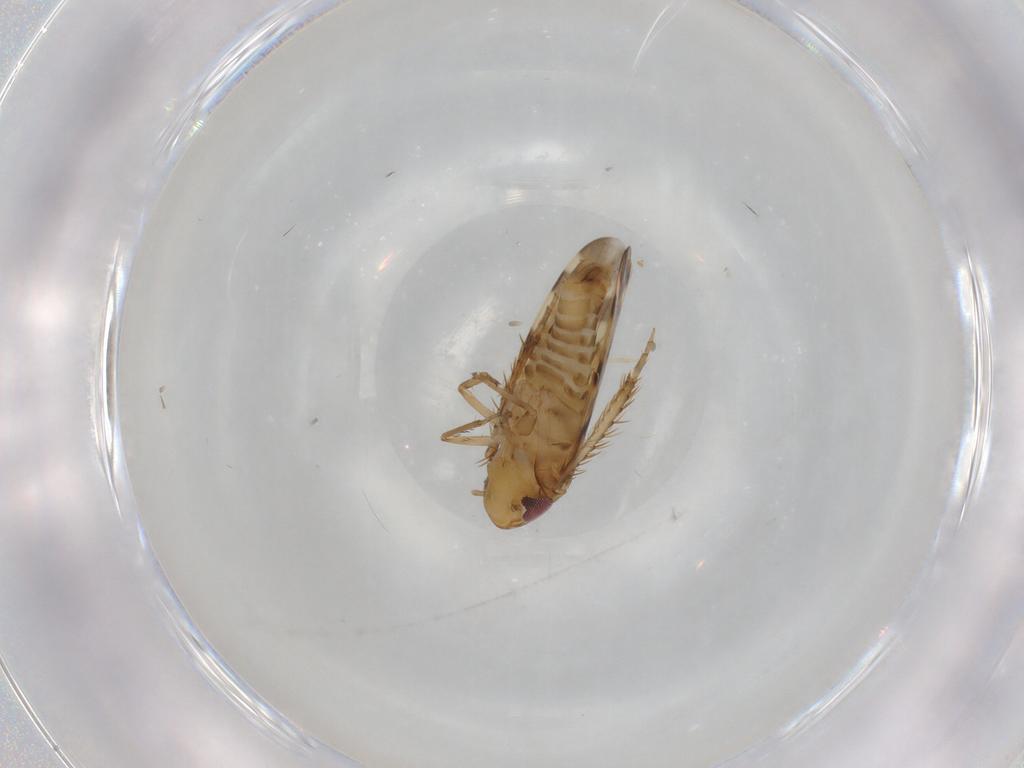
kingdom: Animalia
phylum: Arthropoda
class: Insecta
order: Hemiptera
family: Cicadellidae
